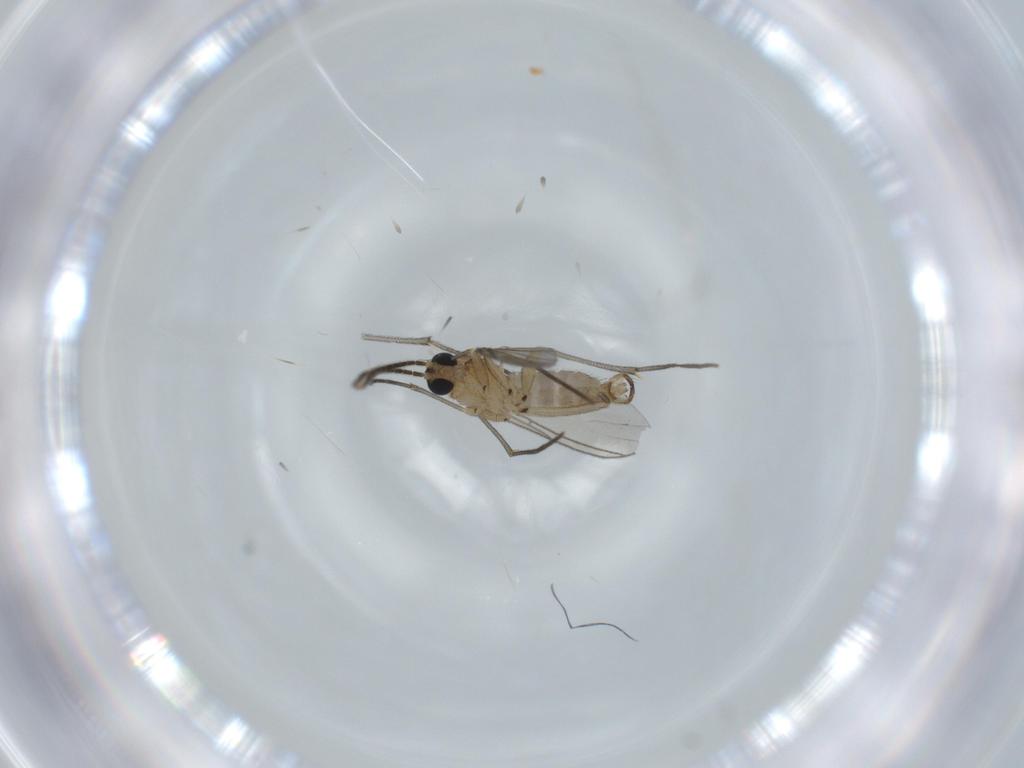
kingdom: Animalia
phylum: Arthropoda
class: Insecta
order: Diptera
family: Sciaridae
